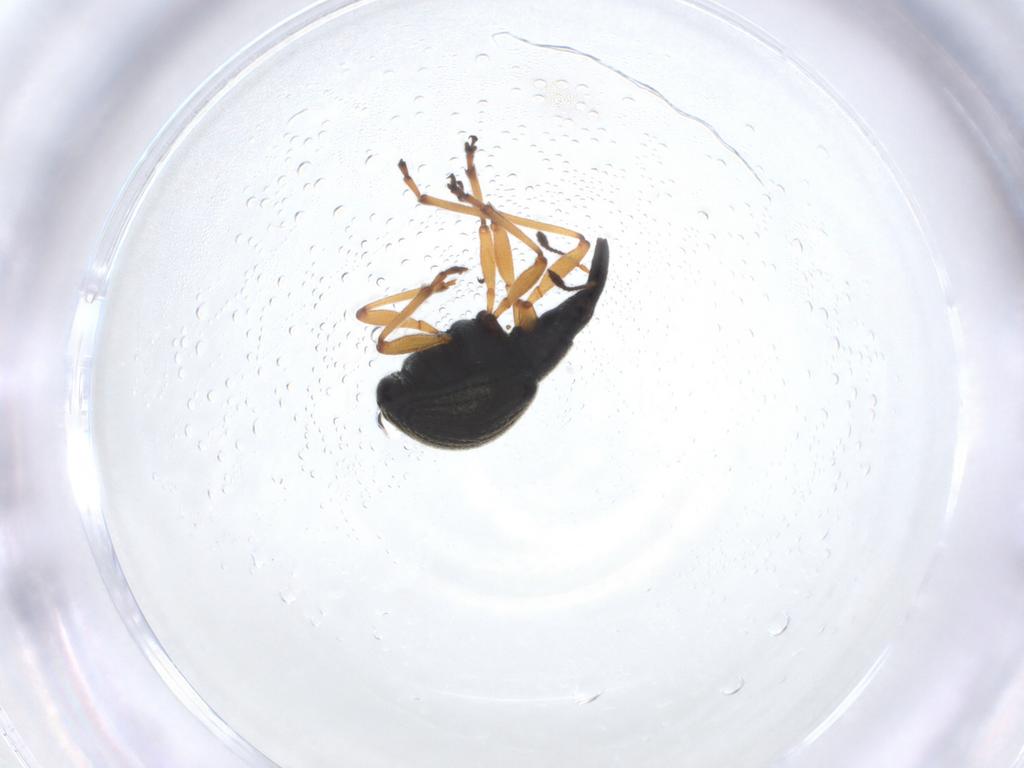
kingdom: Animalia
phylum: Arthropoda
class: Insecta
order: Coleoptera
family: Brentidae
